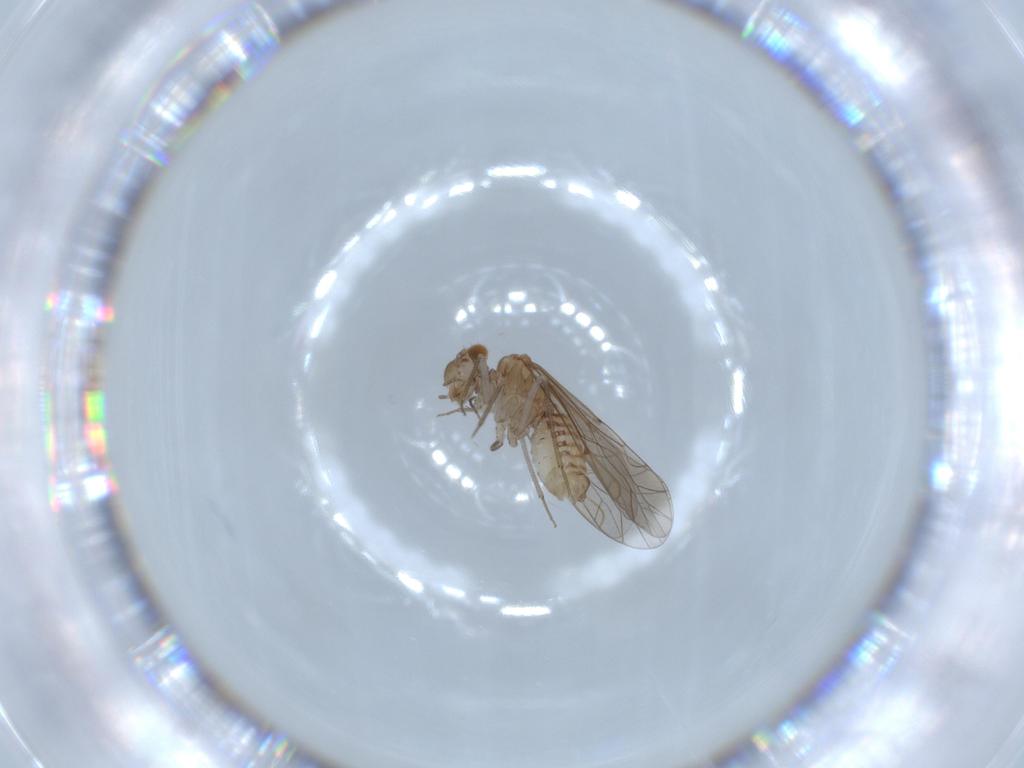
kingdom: Animalia
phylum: Arthropoda
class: Insecta
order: Psocodea
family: Lachesillidae
